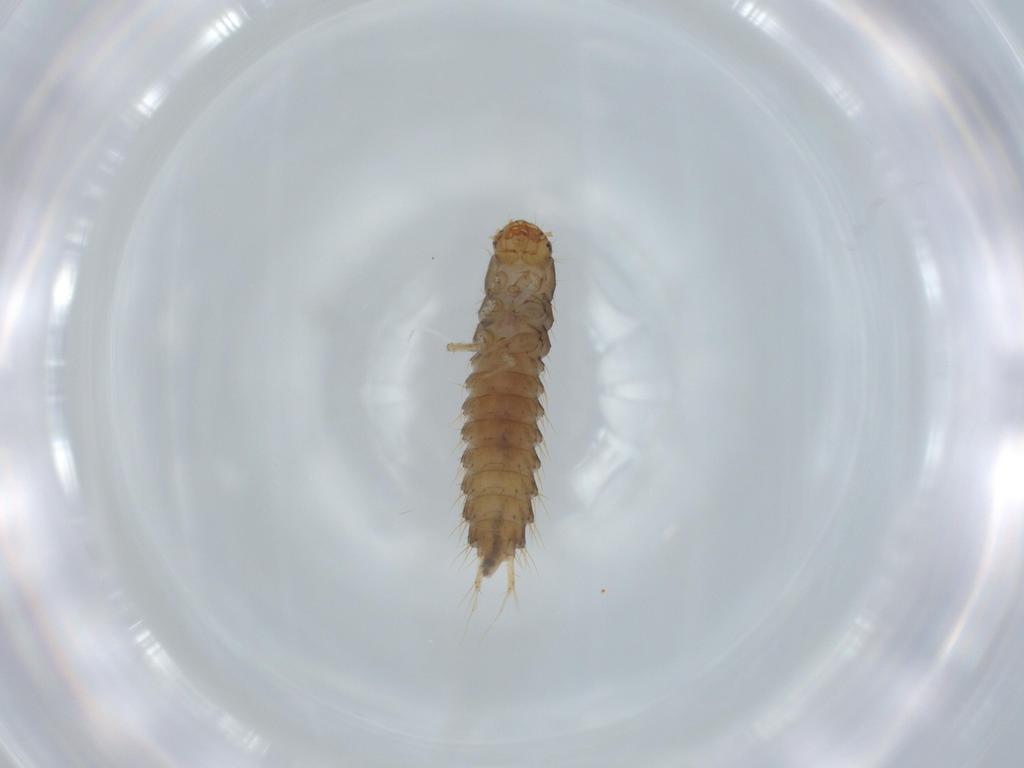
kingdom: Animalia
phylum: Arthropoda
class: Insecta
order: Coleoptera
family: Staphylinidae
